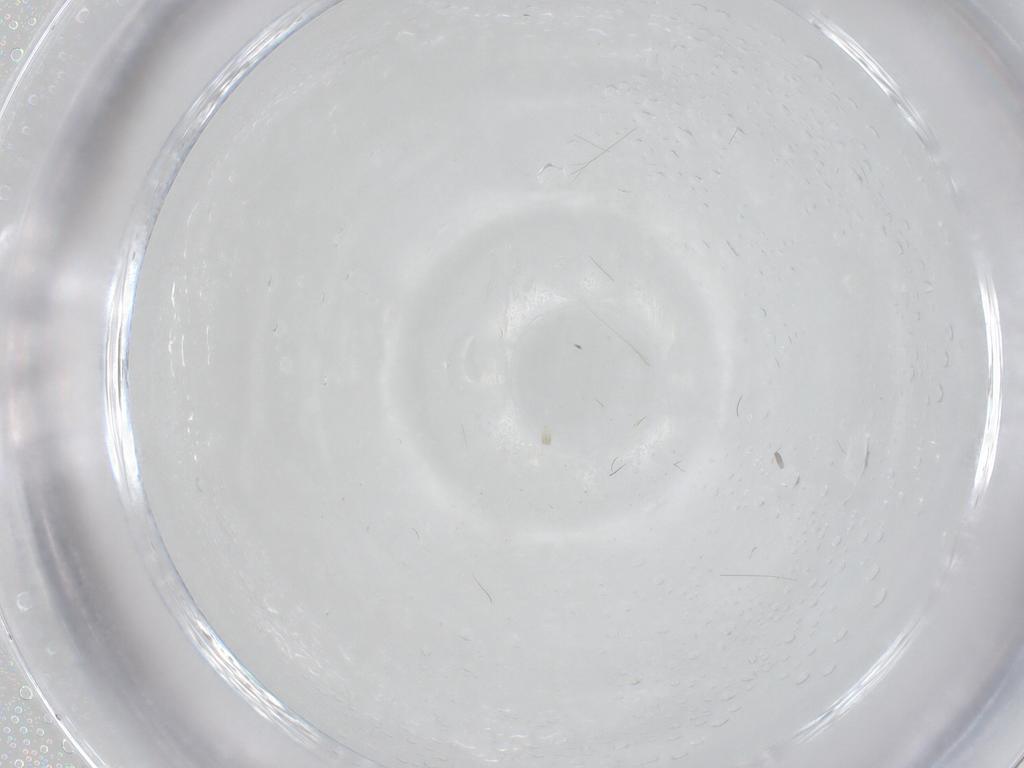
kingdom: Animalia
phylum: Arthropoda
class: Insecta
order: Diptera
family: Cecidomyiidae
